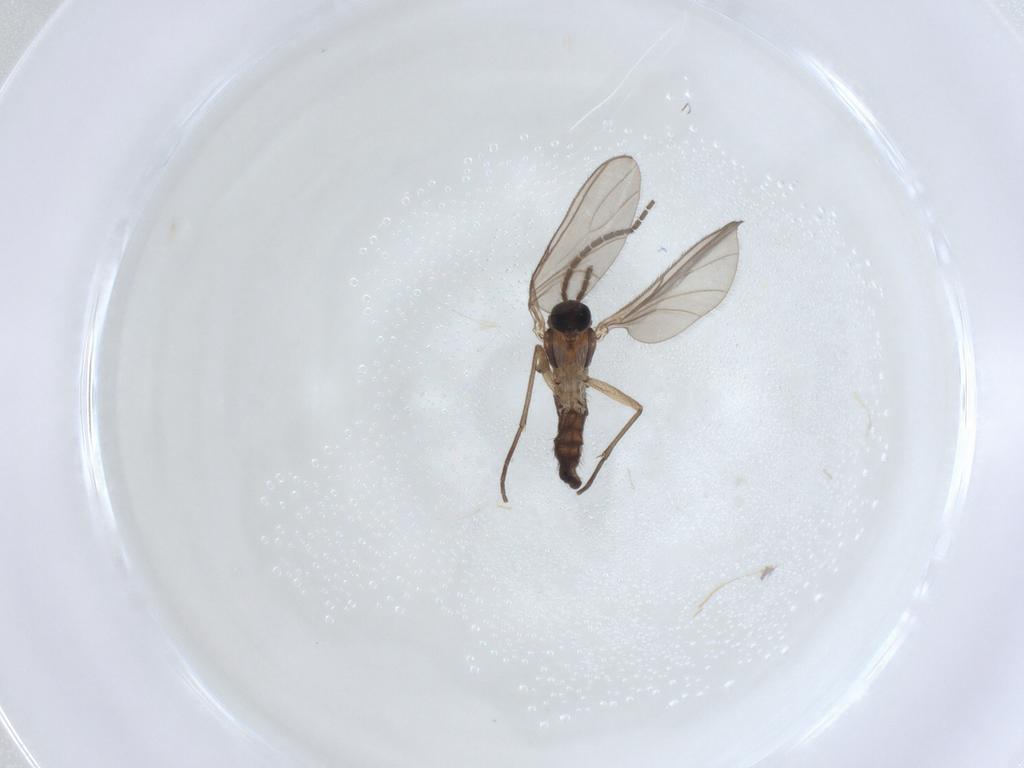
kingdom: Animalia
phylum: Arthropoda
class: Insecta
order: Diptera
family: Sciaridae
